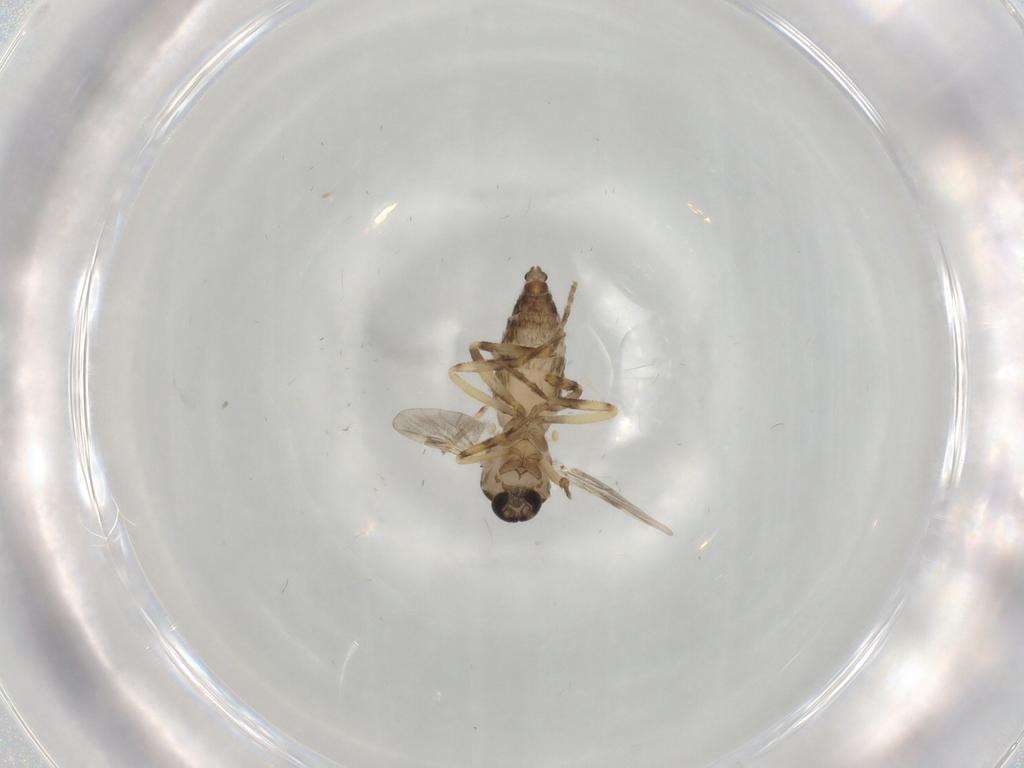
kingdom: Animalia
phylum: Arthropoda
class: Insecta
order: Diptera
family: Ceratopogonidae
